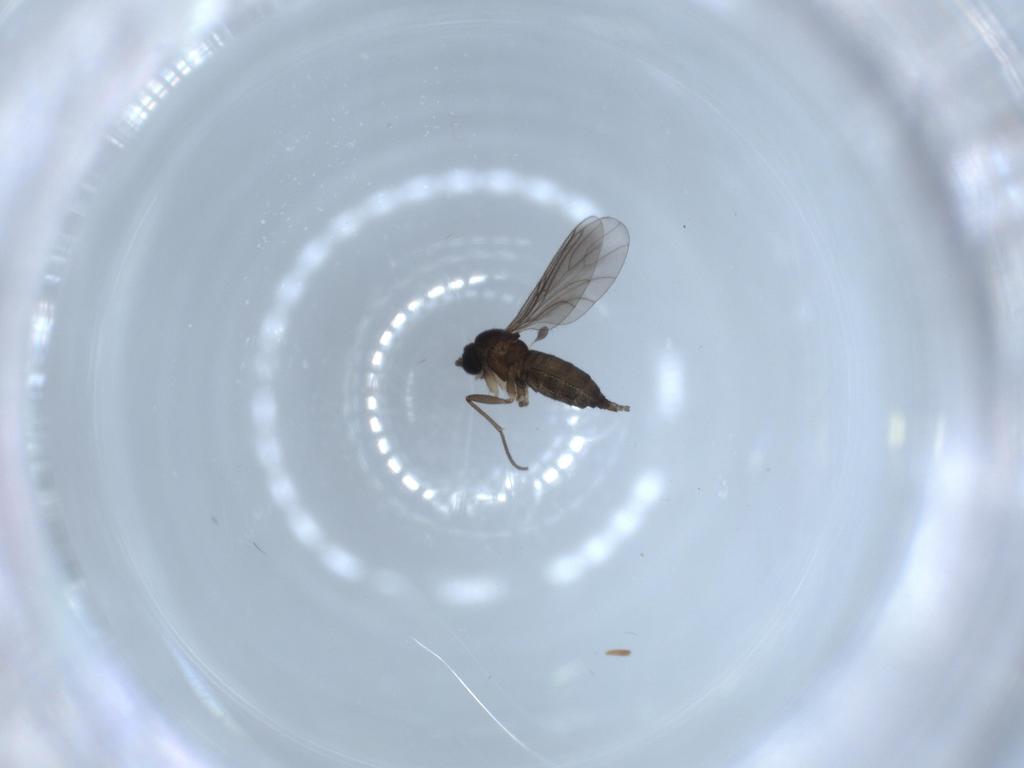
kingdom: Animalia
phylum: Arthropoda
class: Insecta
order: Diptera
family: Sciaridae
